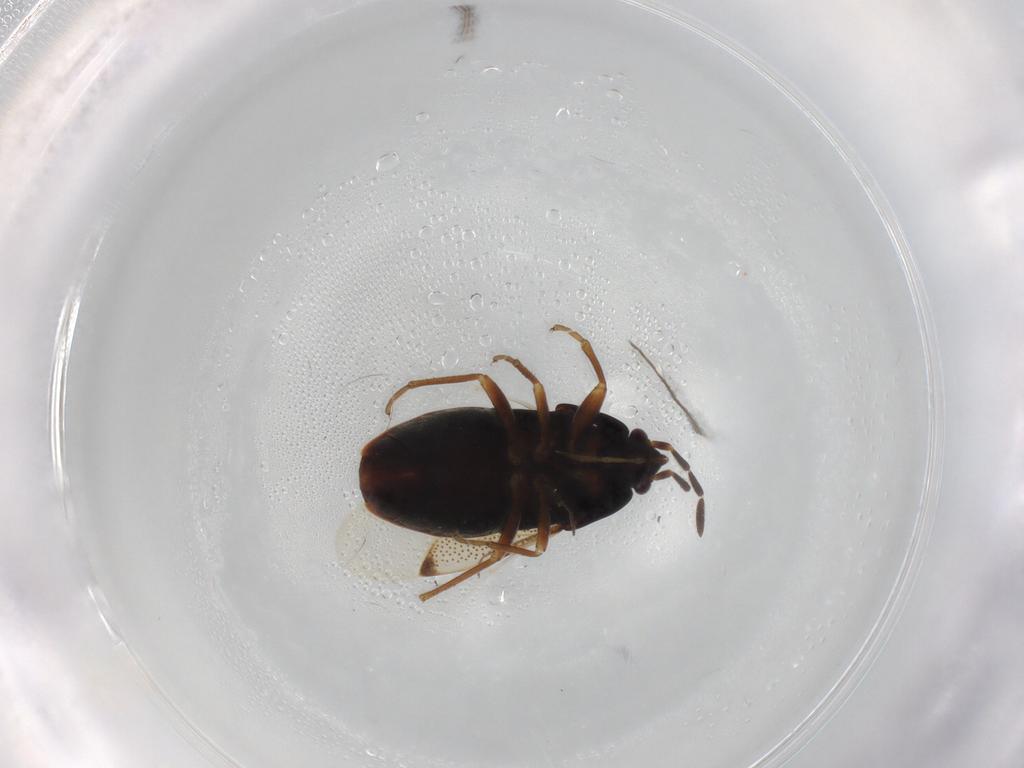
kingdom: Animalia
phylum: Arthropoda
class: Insecta
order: Hemiptera
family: Rhyparochromidae
